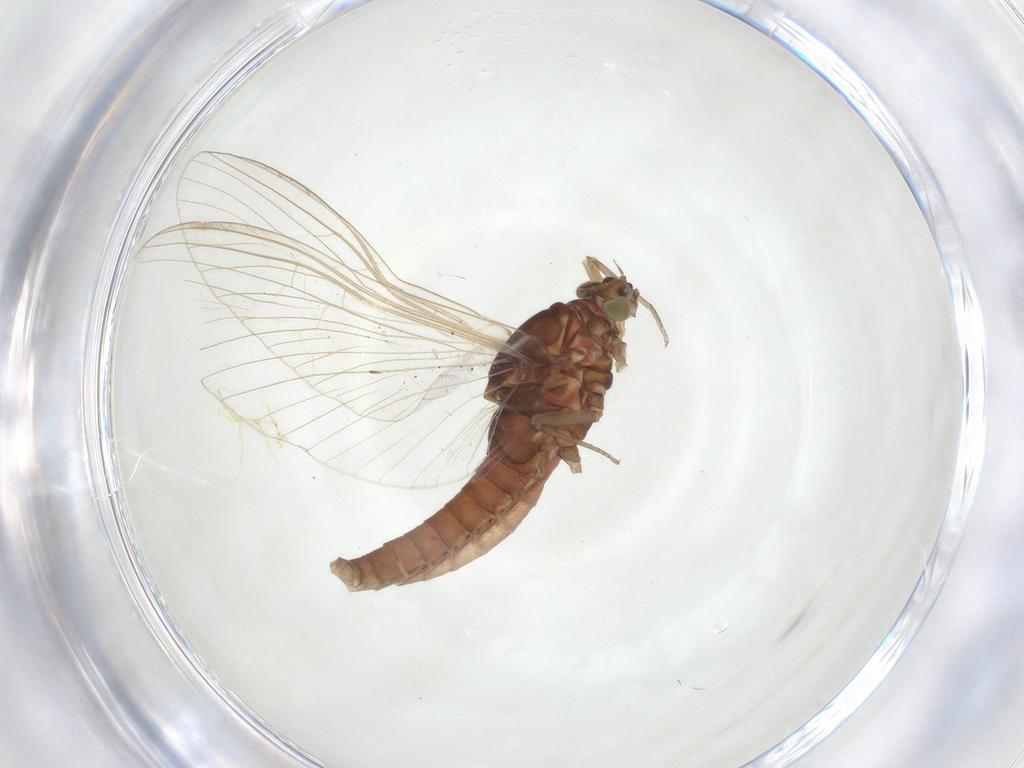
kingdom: Animalia
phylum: Arthropoda
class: Insecta
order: Ephemeroptera
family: Baetidae
